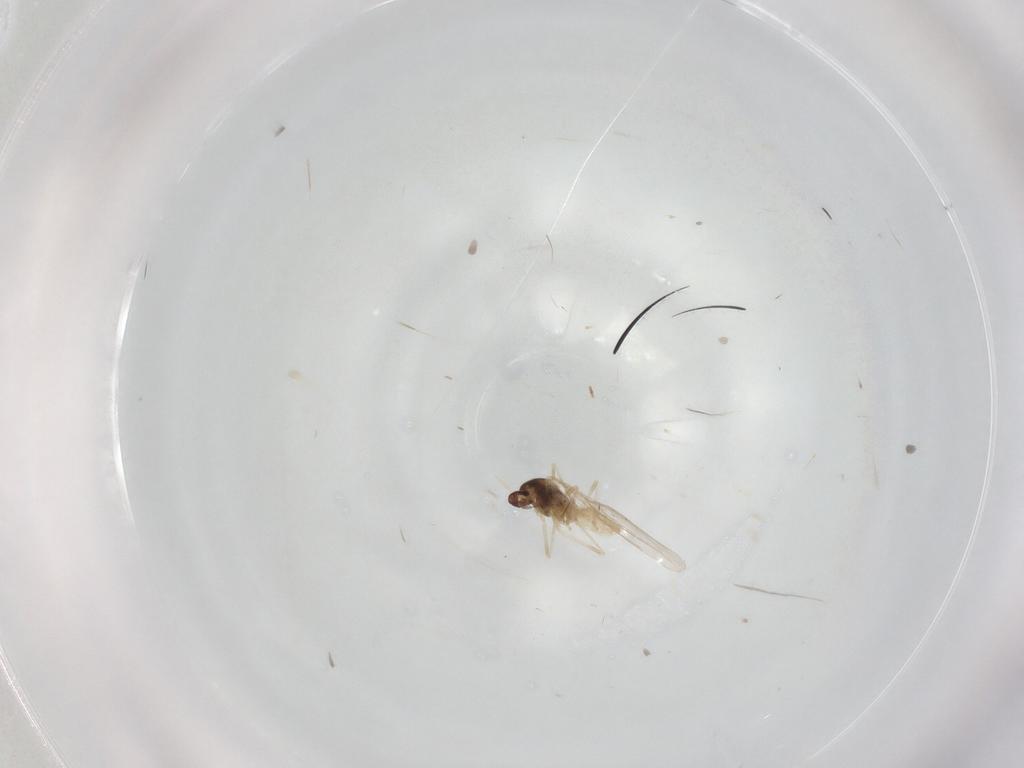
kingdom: Animalia
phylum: Arthropoda
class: Insecta
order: Diptera
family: Cecidomyiidae
